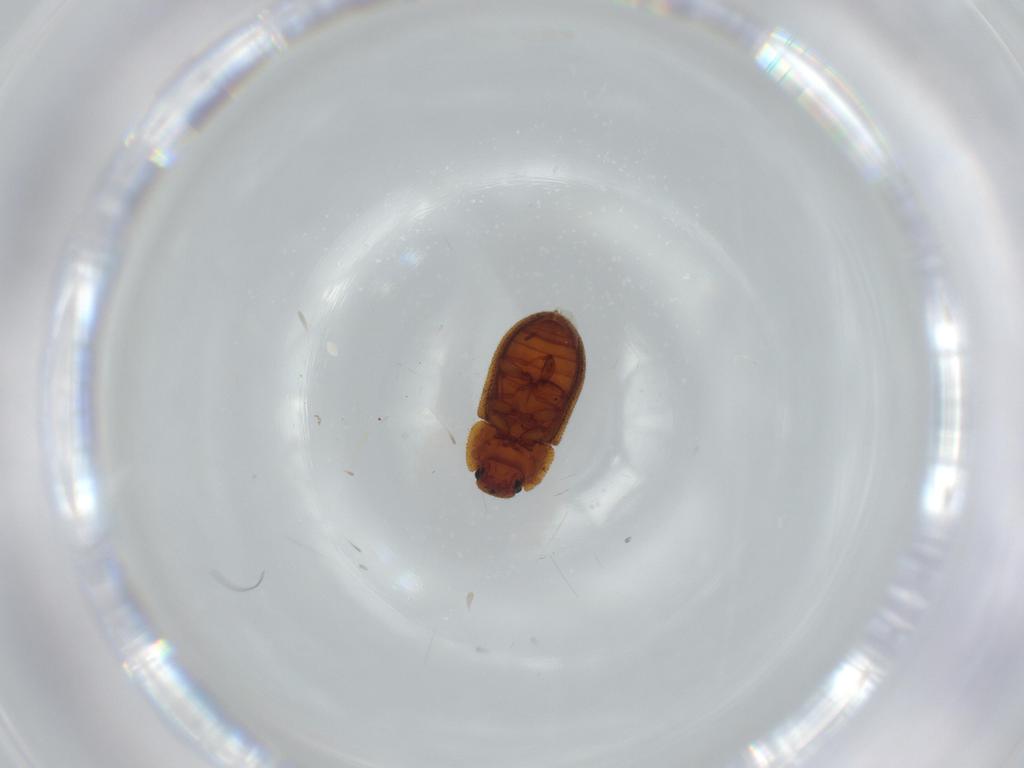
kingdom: Animalia
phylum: Arthropoda
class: Insecta
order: Coleoptera
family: Zopheridae
